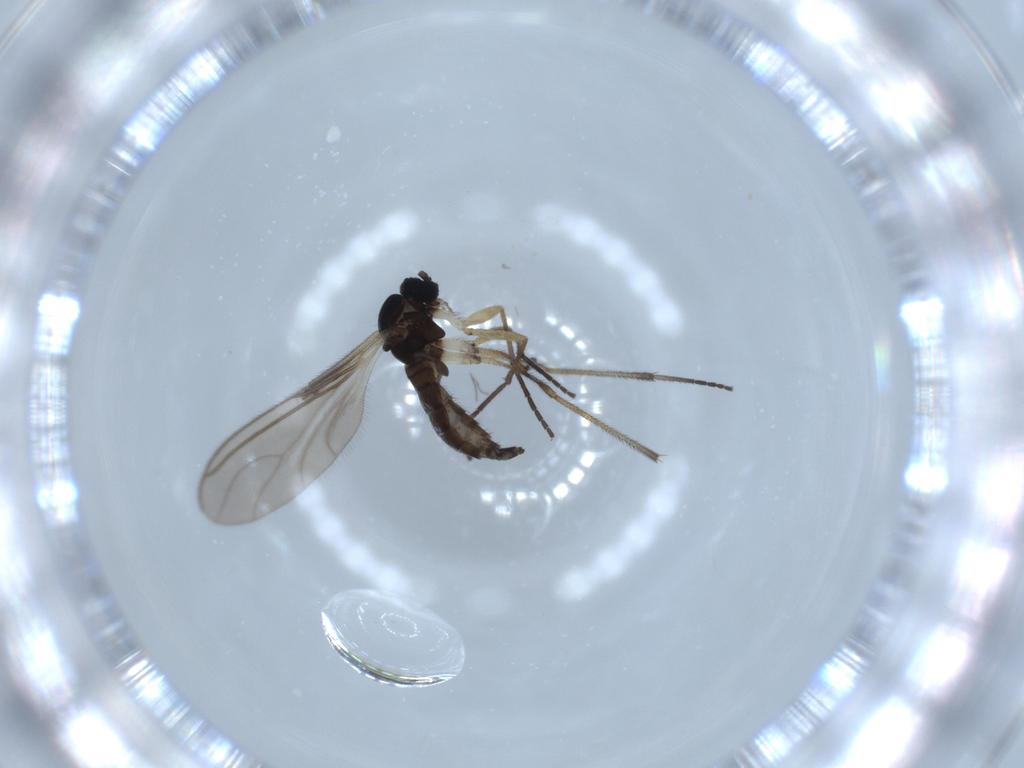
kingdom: Animalia
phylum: Arthropoda
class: Insecta
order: Diptera
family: Sciaridae
